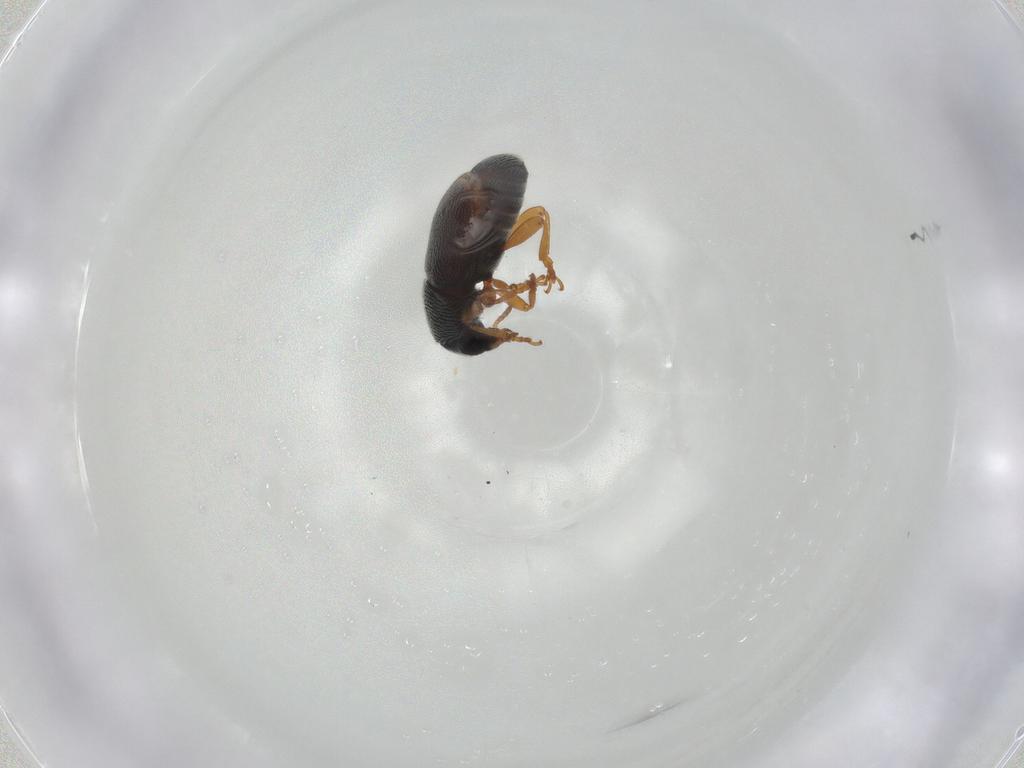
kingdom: Animalia
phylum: Arthropoda
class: Insecta
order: Coleoptera
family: Anthribidae
